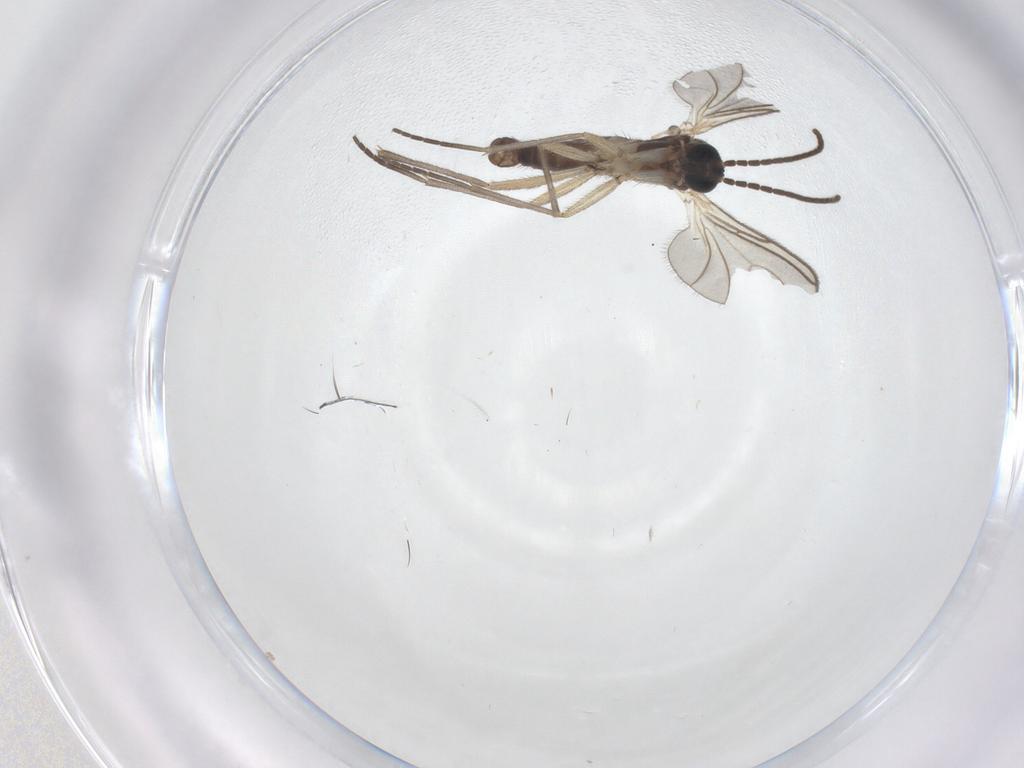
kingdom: Animalia
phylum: Arthropoda
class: Insecta
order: Diptera
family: Sciaridae
